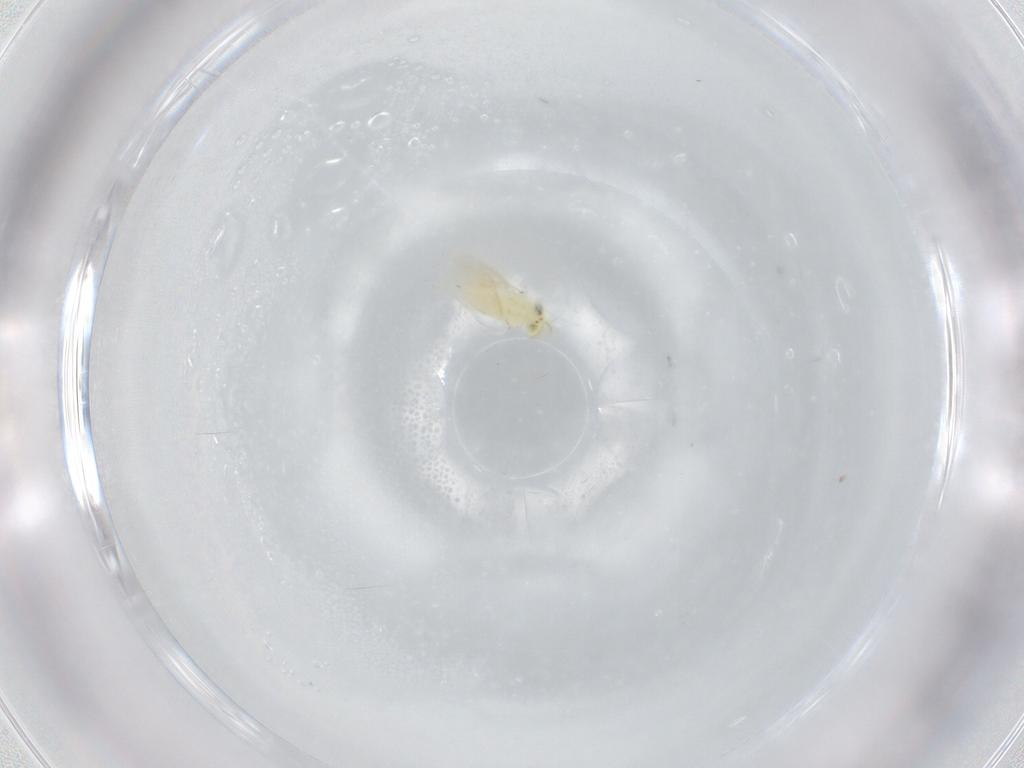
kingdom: Animalia
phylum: Arthropoda
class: Insecta
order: Hymenoptera
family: Aphelinidae
